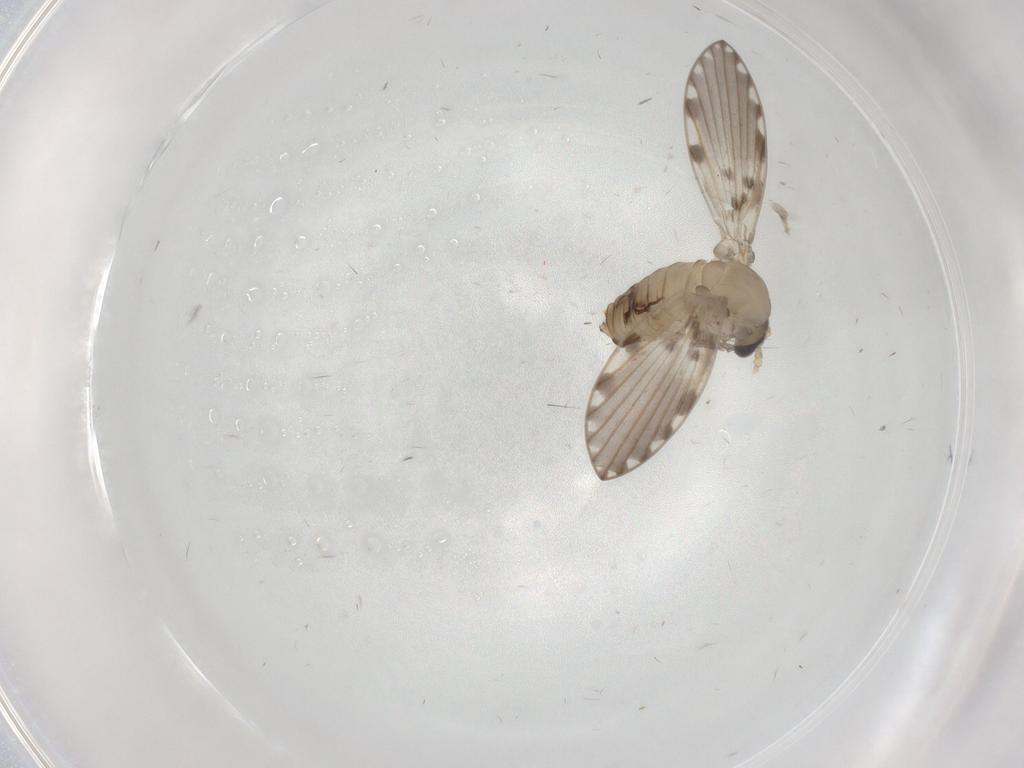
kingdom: Animalia
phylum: Arthropoda
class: Insecta
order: Diptera
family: Psychodidae
